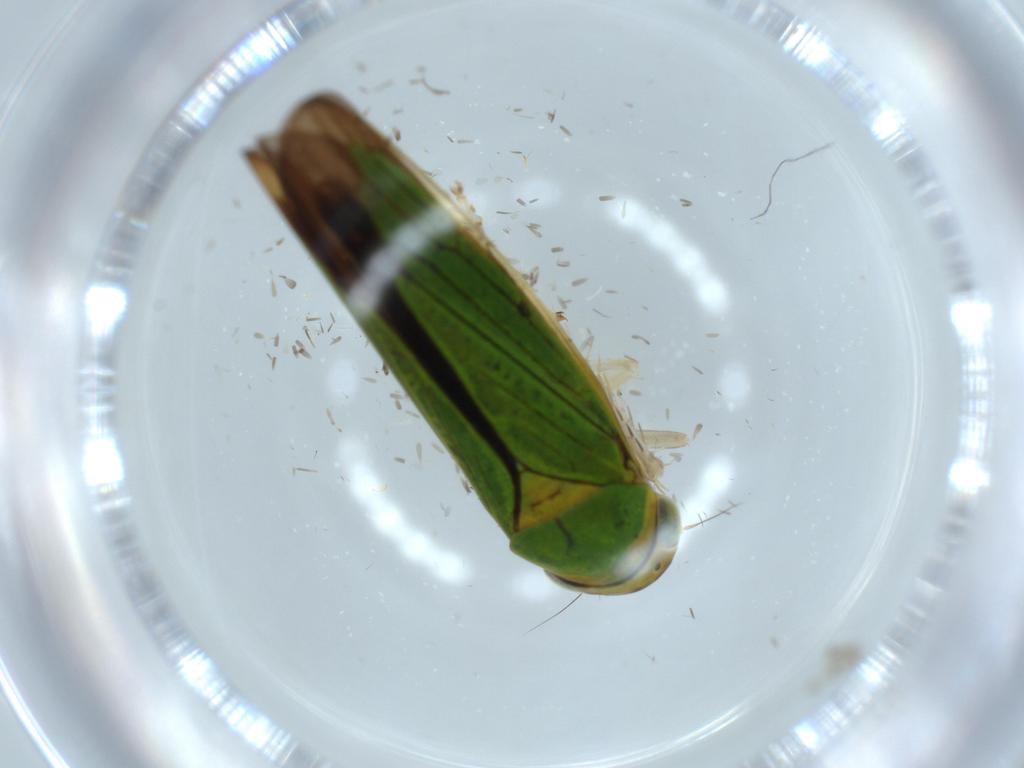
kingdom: Animalia
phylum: Arthropoda
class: Insecta
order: Hemiptera
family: Cicadellidae
